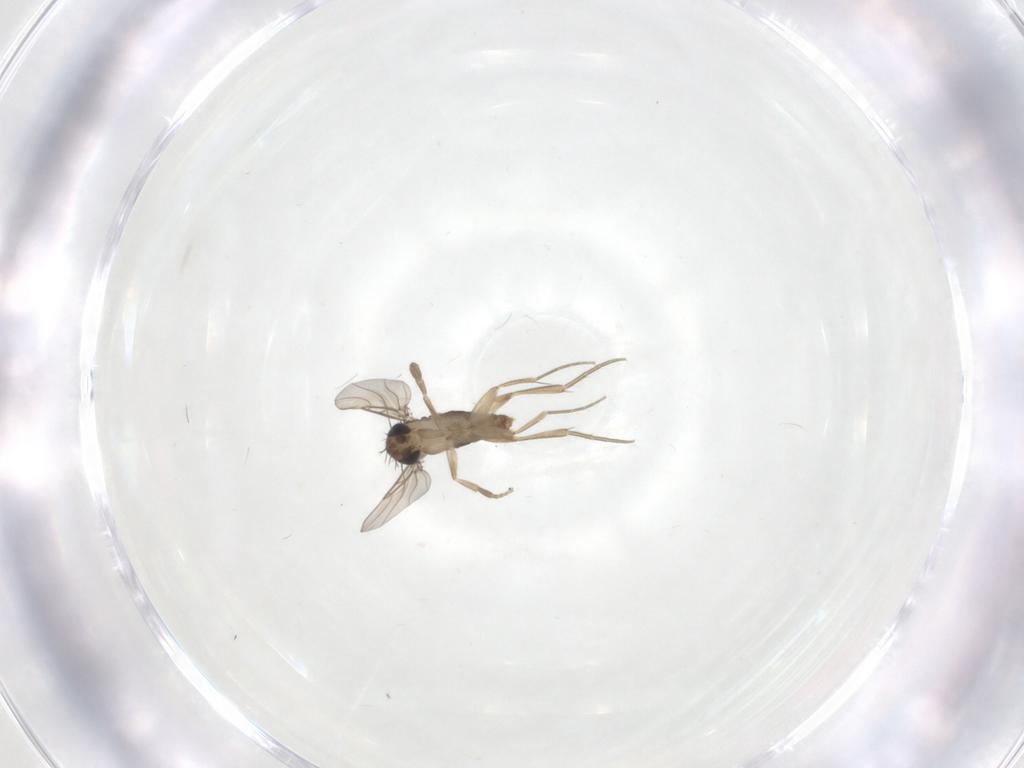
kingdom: Animalia
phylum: Arthropoda
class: Insecta
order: Diptera
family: Phoridae
